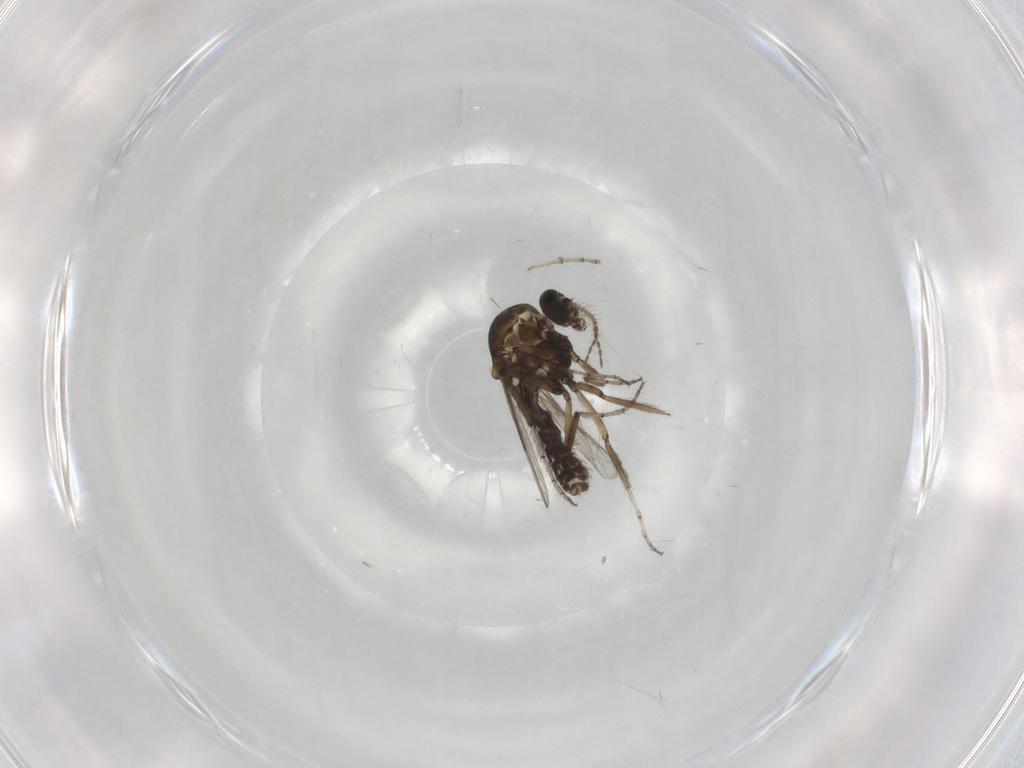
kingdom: Animalia
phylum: Arthropoda
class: Insecta
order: Diptera
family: Ceratopogonidae
